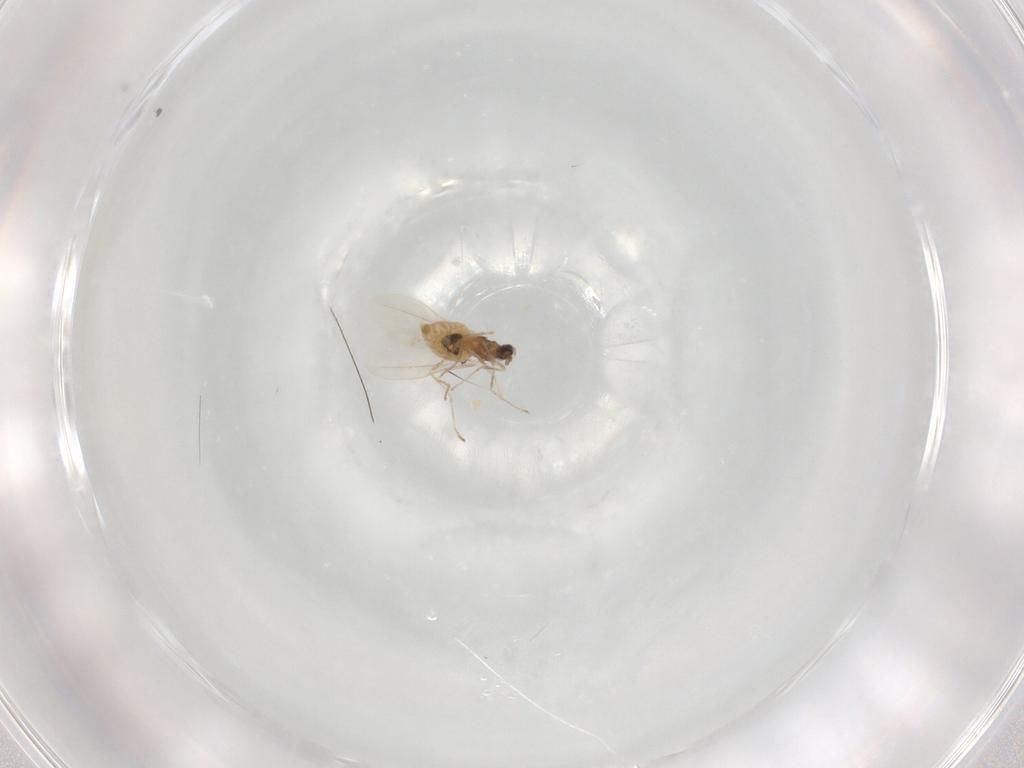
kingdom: Animalia
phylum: Arthropoda
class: Insecta
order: Diptera
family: Cecidomyiidae
